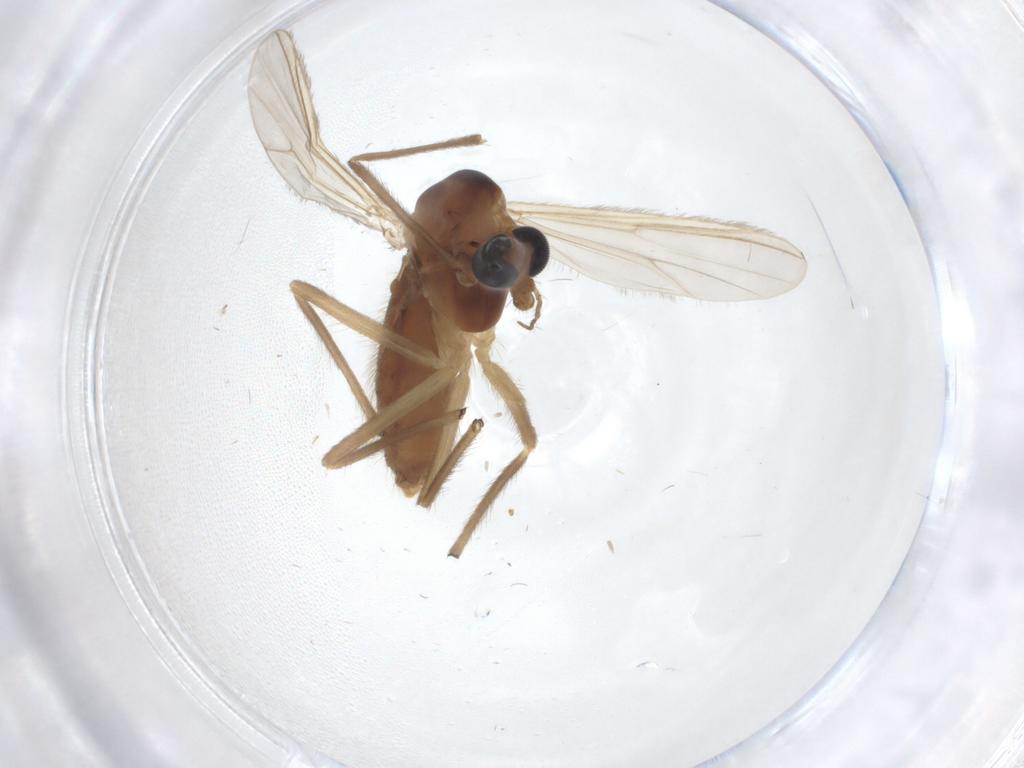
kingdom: Animalia
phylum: Arthropoda
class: Insecta
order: Diptera
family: Chironomidae
